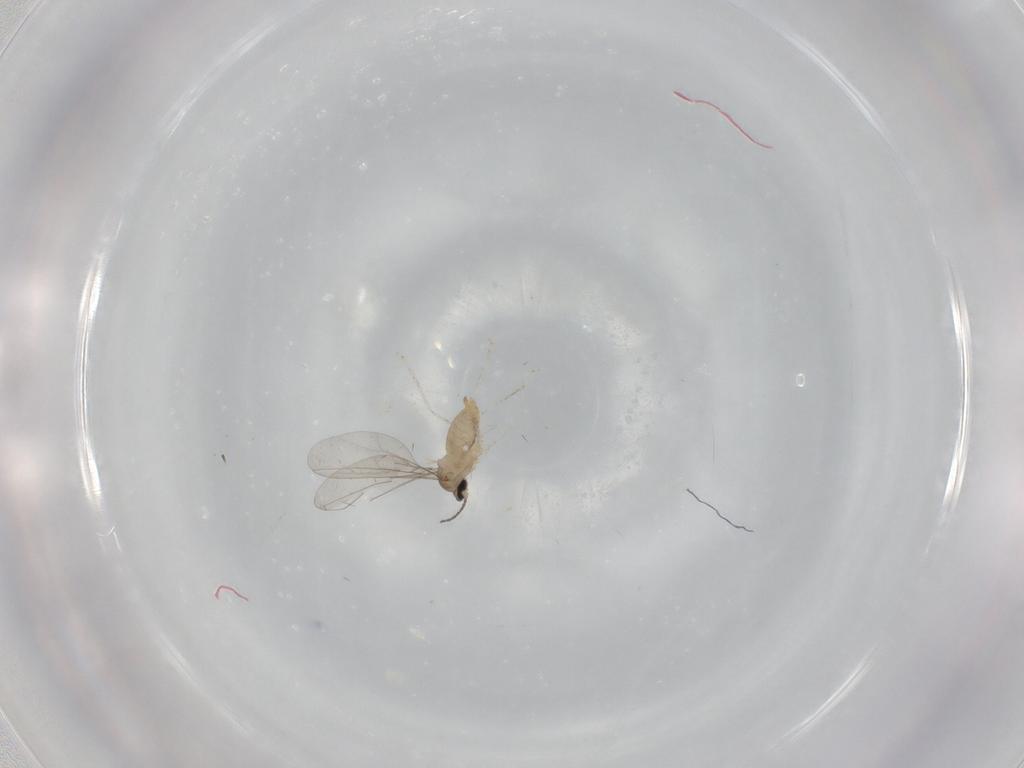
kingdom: Animalia
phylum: Arthropoda
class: Insecta
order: Diptera
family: Cecidomyiidae
